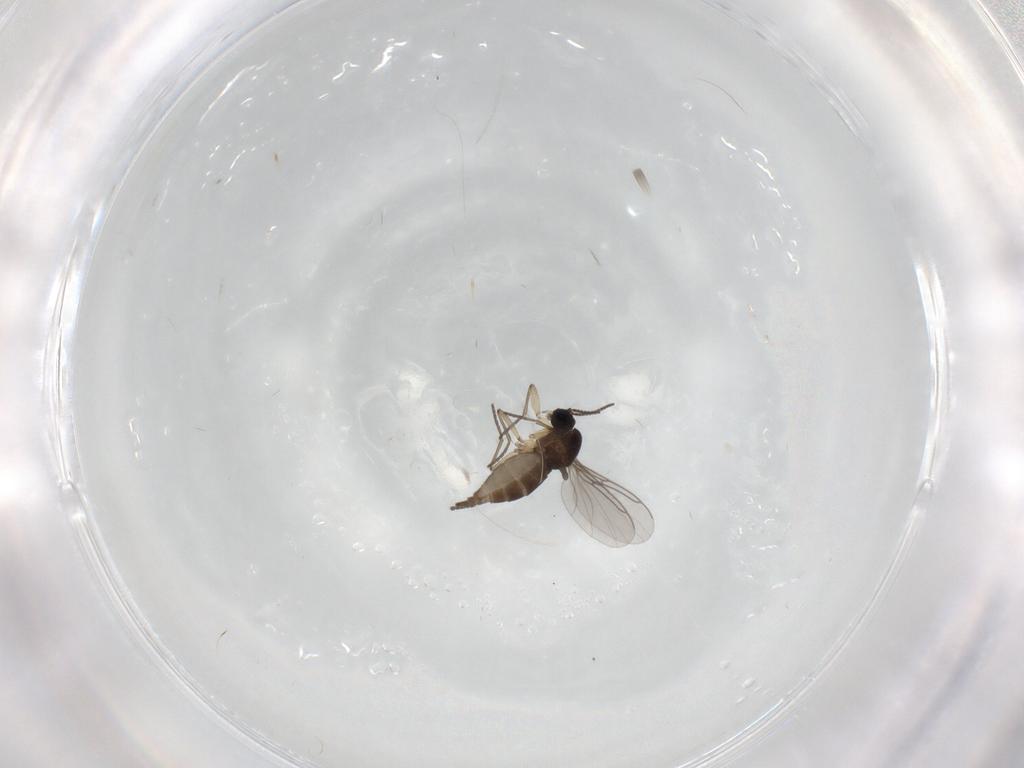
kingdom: Animalia
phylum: Arthropoda
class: Insecta
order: Diptera
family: Sciaridae
